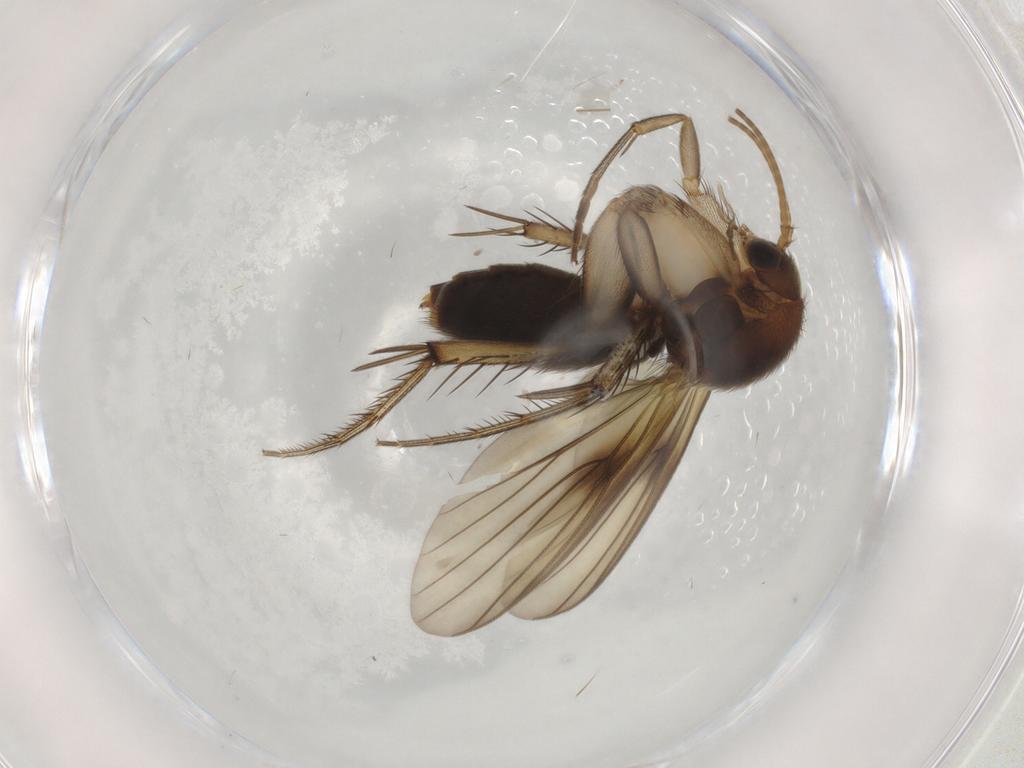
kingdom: Animalia
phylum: Arthropoda
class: Insecta
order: Diptera
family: Mycetophilidae
